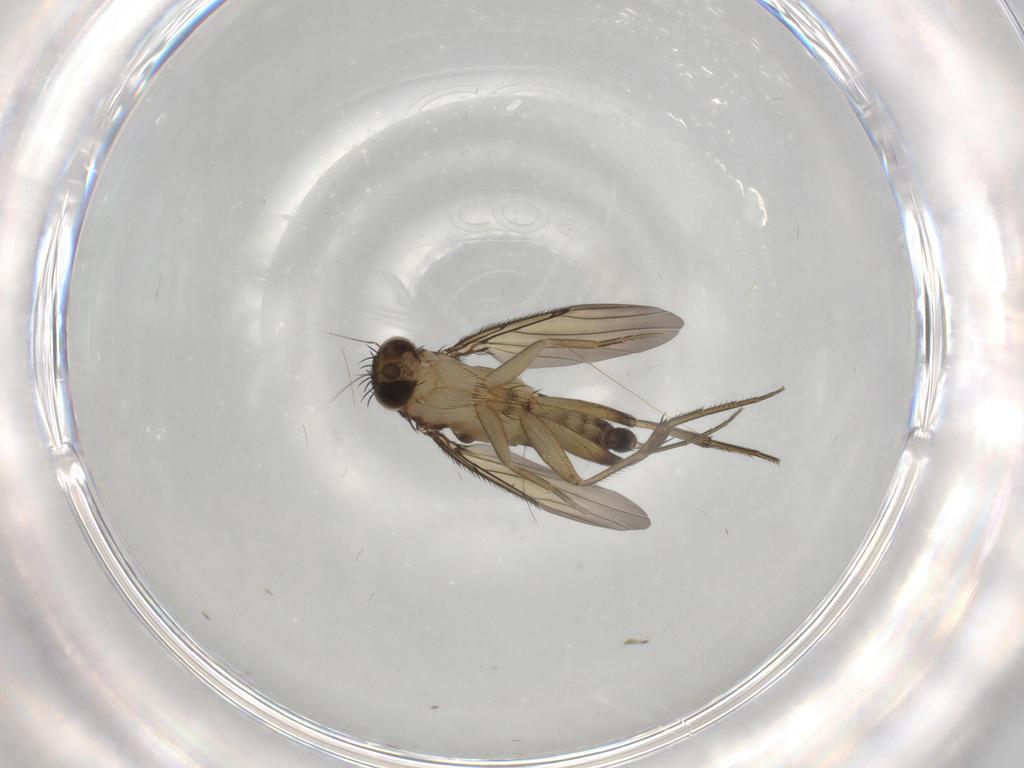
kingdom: Animalia
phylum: Arthropoda
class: Insecta
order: Diptera
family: Phoridae
